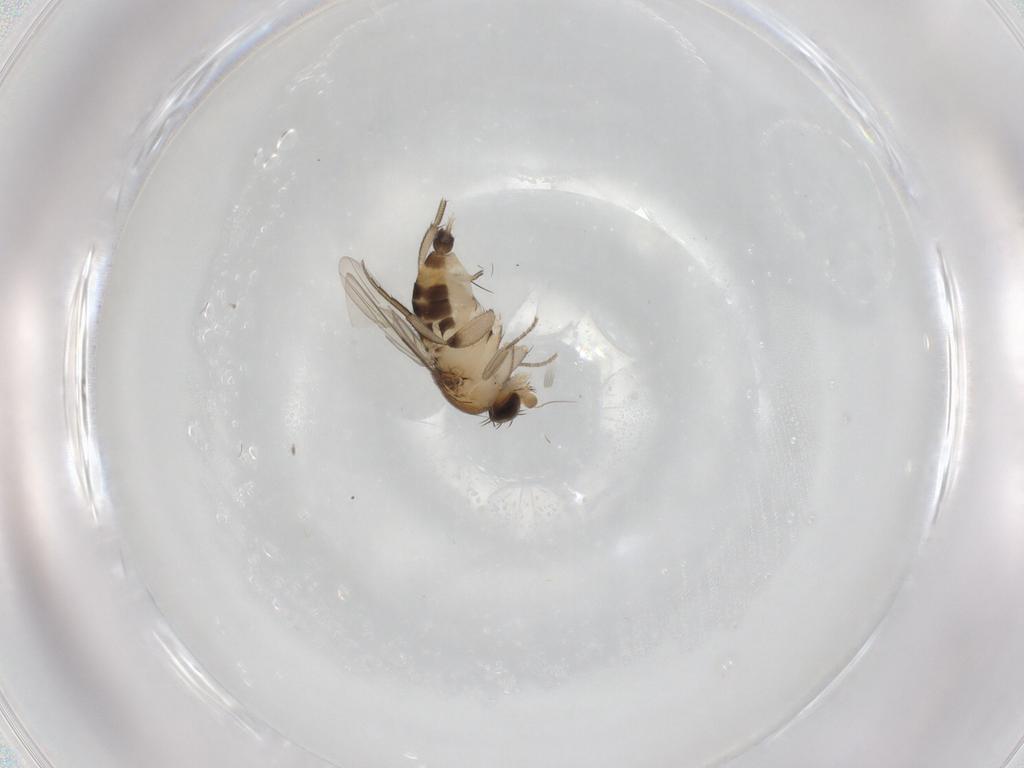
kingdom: Animalia
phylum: Arthropoda
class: Insecta
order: Diptera
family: Phoridae
